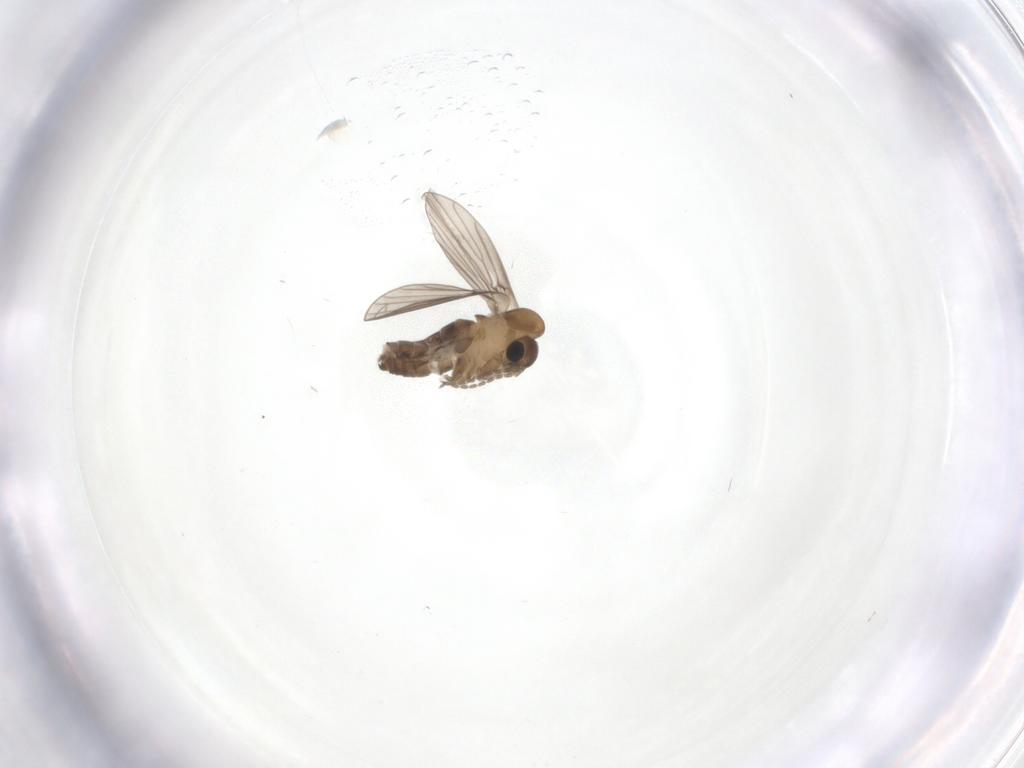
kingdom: Animalia
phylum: Arthropoda
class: Insecta
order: Diptera
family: Psychodidae
